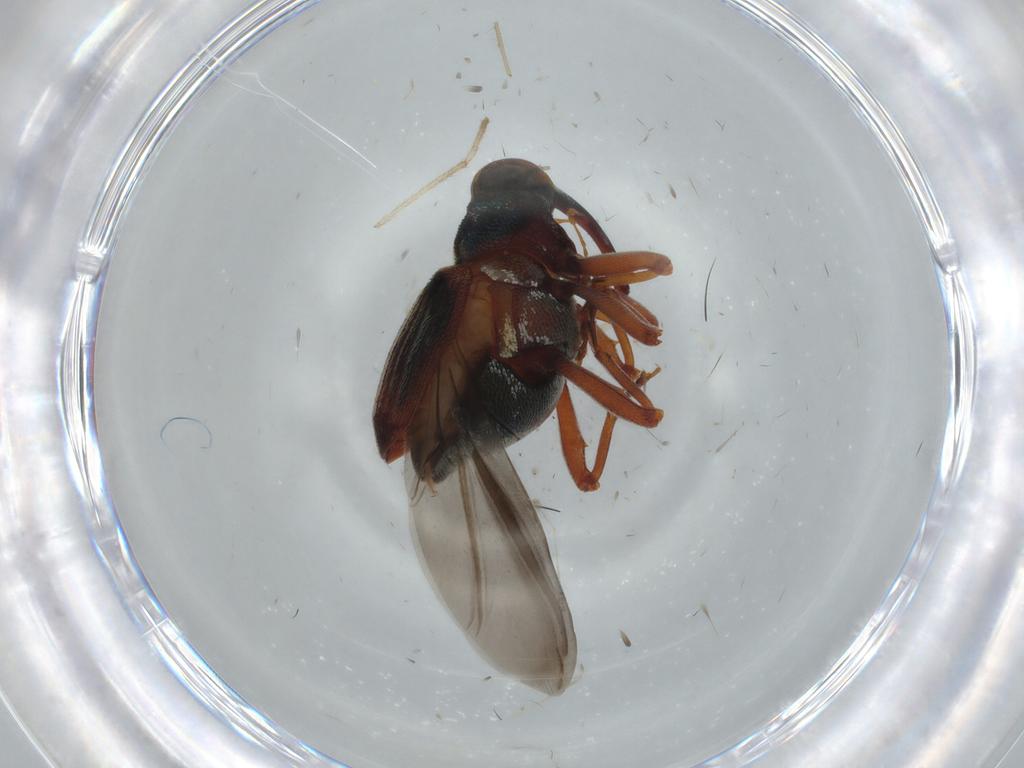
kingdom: Animalia
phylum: Arthropoda
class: Insecta
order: Coleoptera
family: Curculionidae
